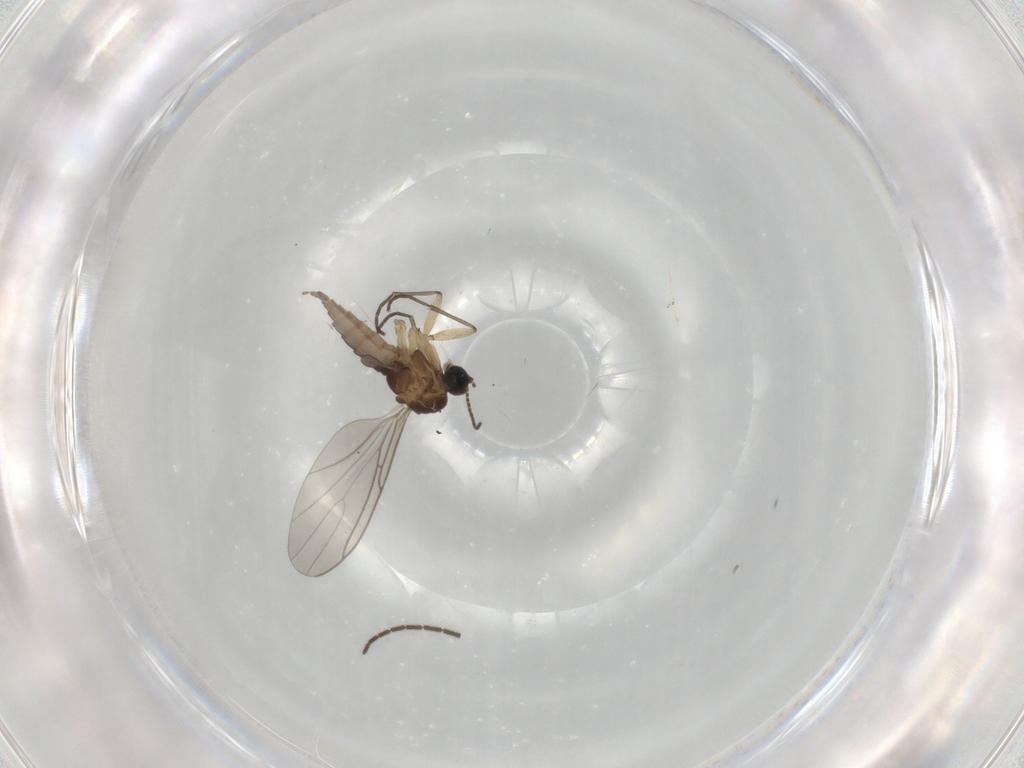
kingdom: Animalia
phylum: Arthropoda
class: Insecta
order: Diptera
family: Sciaridae
